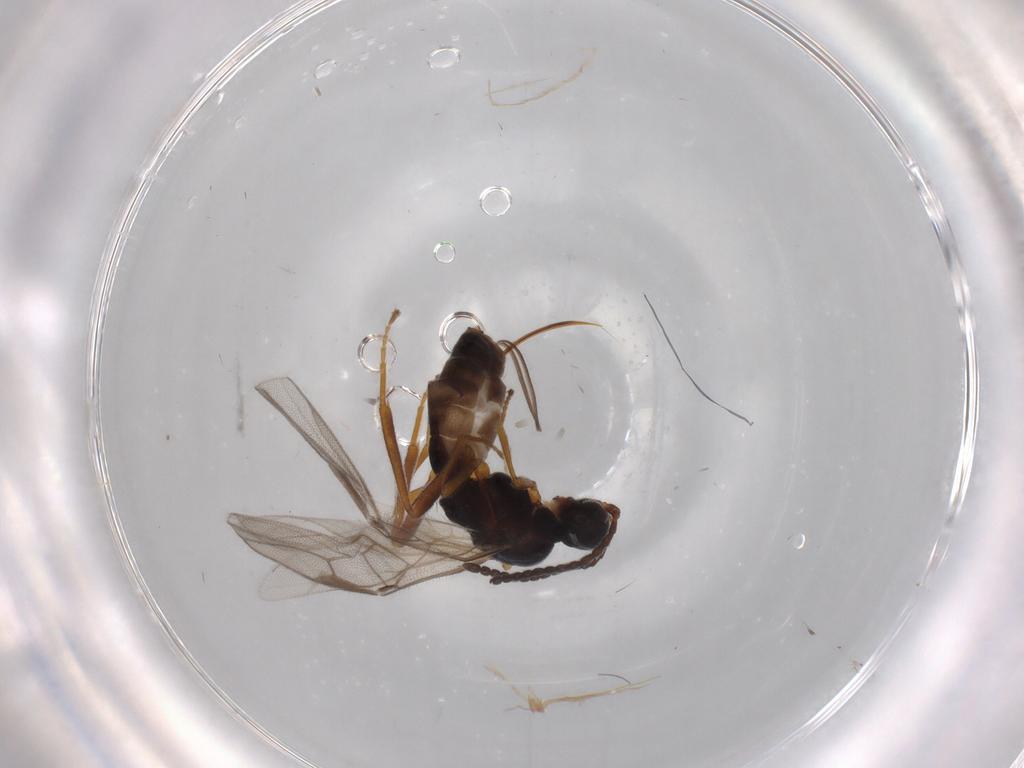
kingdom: Animalia
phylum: Arthropoda
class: Insecta
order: Hymenoptera
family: Braconidae
